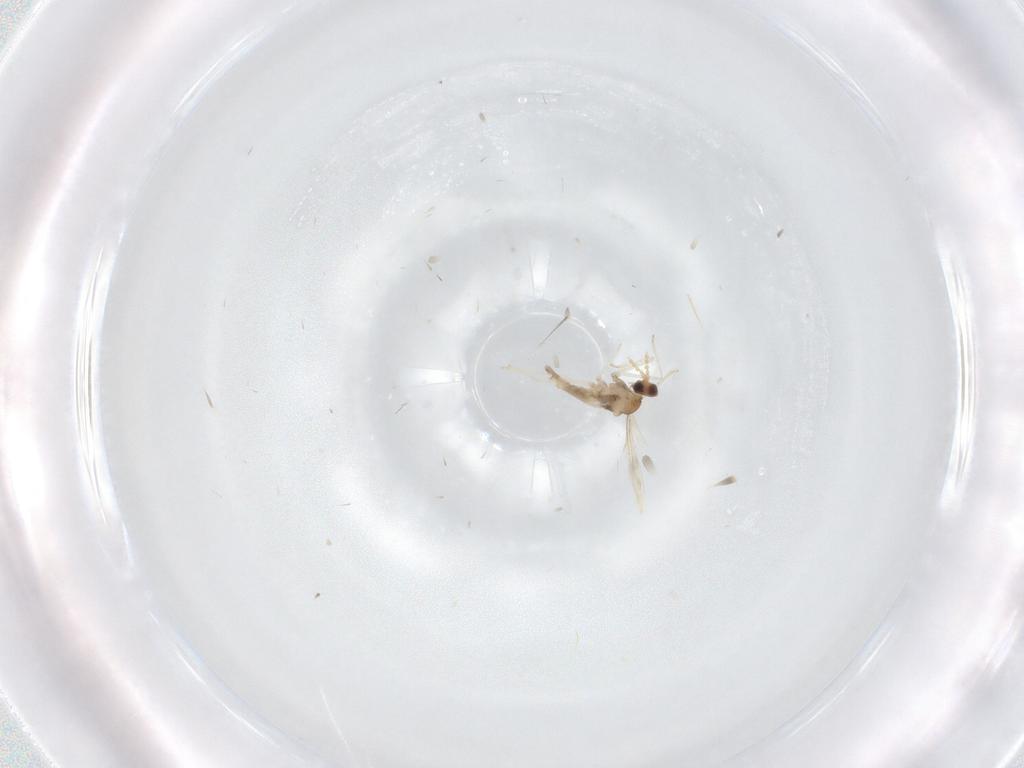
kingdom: Animalia
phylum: Arthropoda
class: Insecta
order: Diptera
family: Cecidomyiidae
